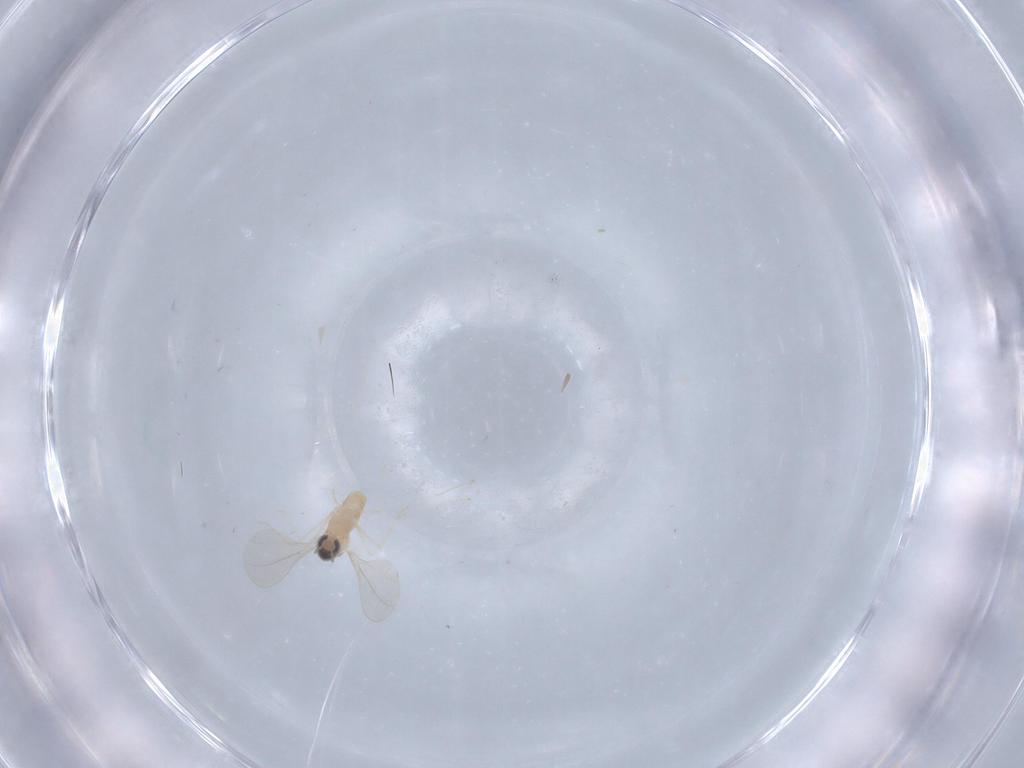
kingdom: Animalia
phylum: Arthropoda
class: Insecta
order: Diptera
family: Cecidomyiidae
